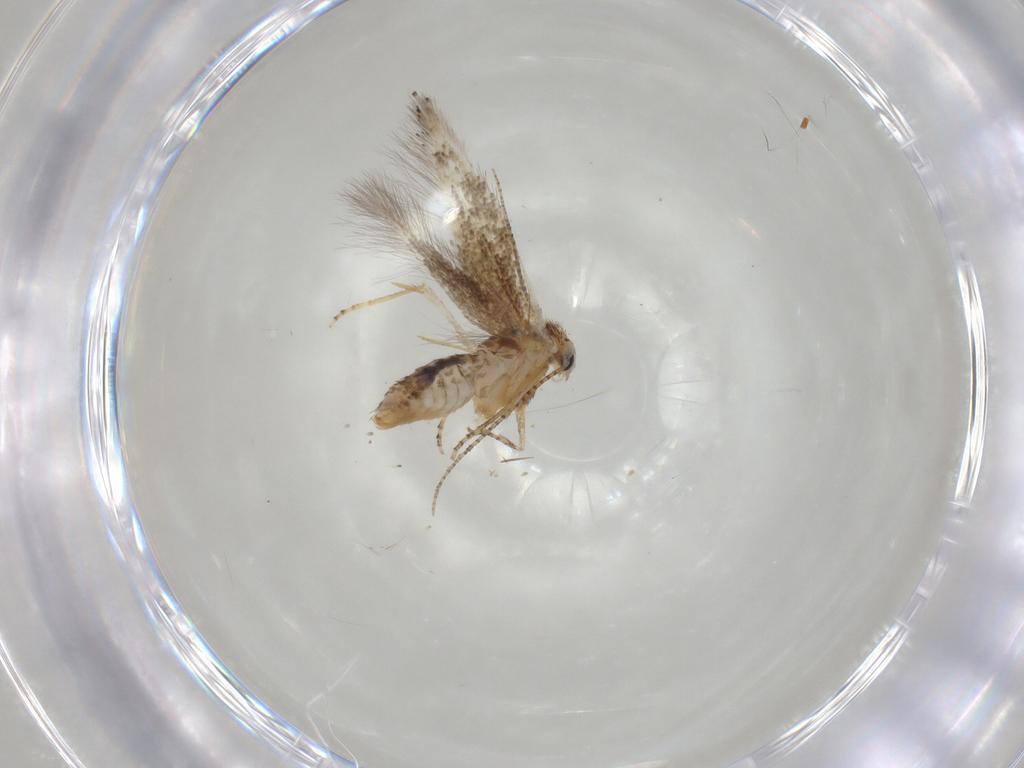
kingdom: Animalia
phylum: Arthropoda
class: Insecta
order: Lepidoptera
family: Bucculatricidae
